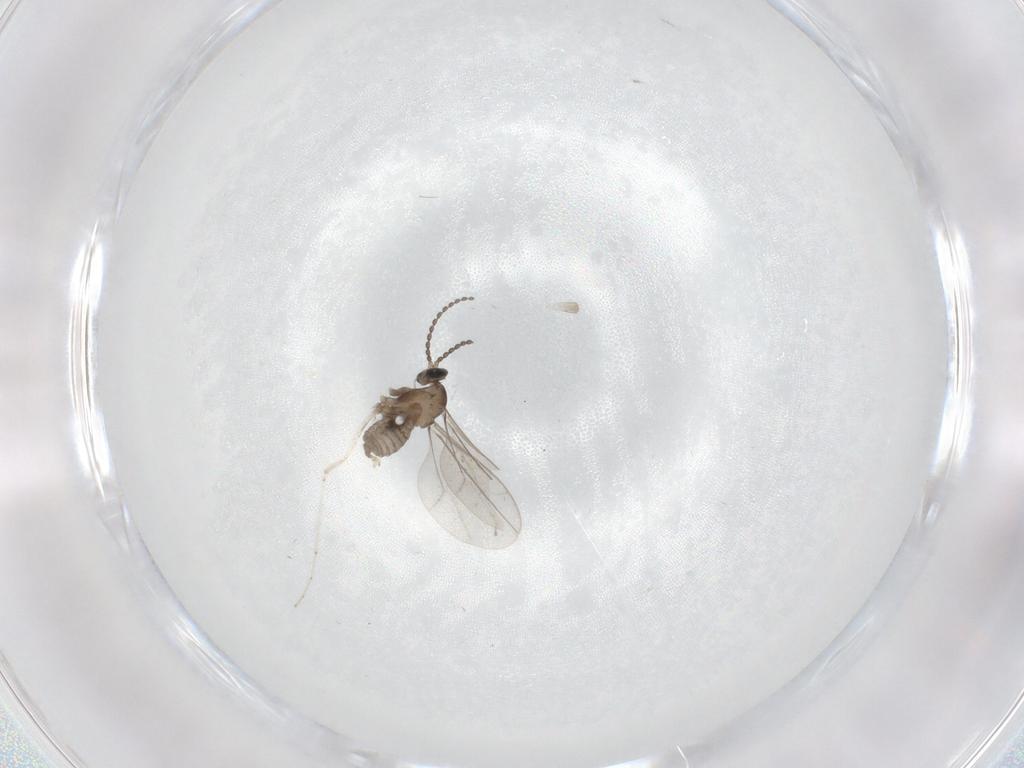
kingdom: Animalia
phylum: Arthropoda
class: Insecta
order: Diptera
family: Cecidomyiidae
